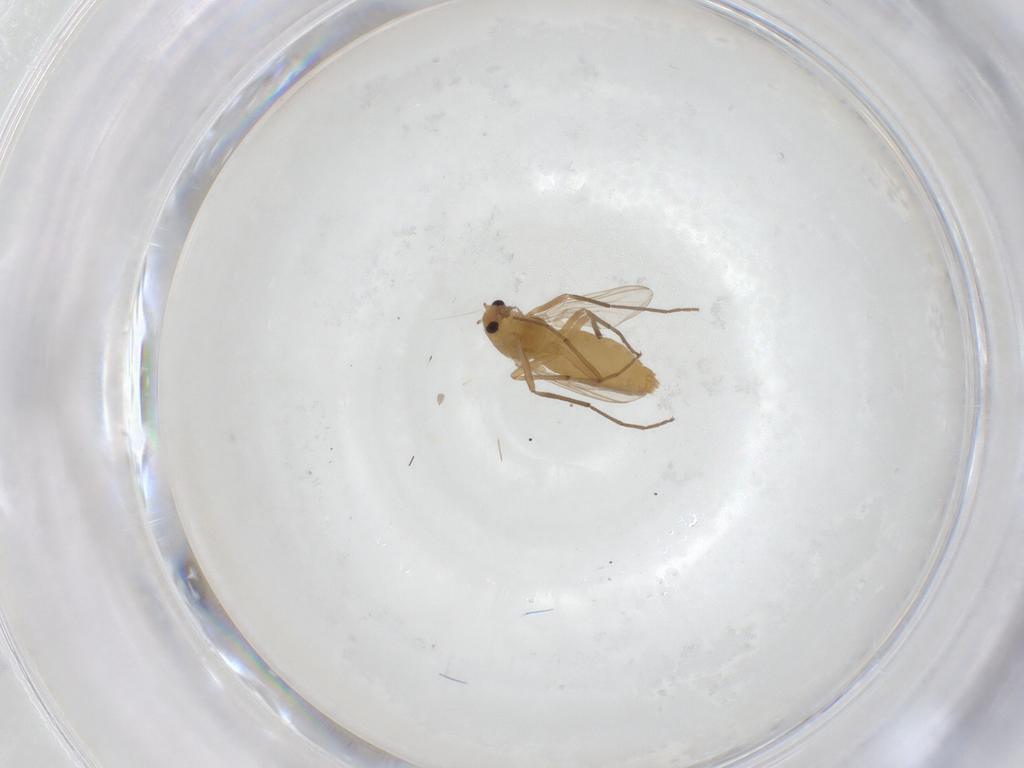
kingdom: Animalia
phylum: Arthropoda
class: Insecta
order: Diptera
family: Chironomidae
